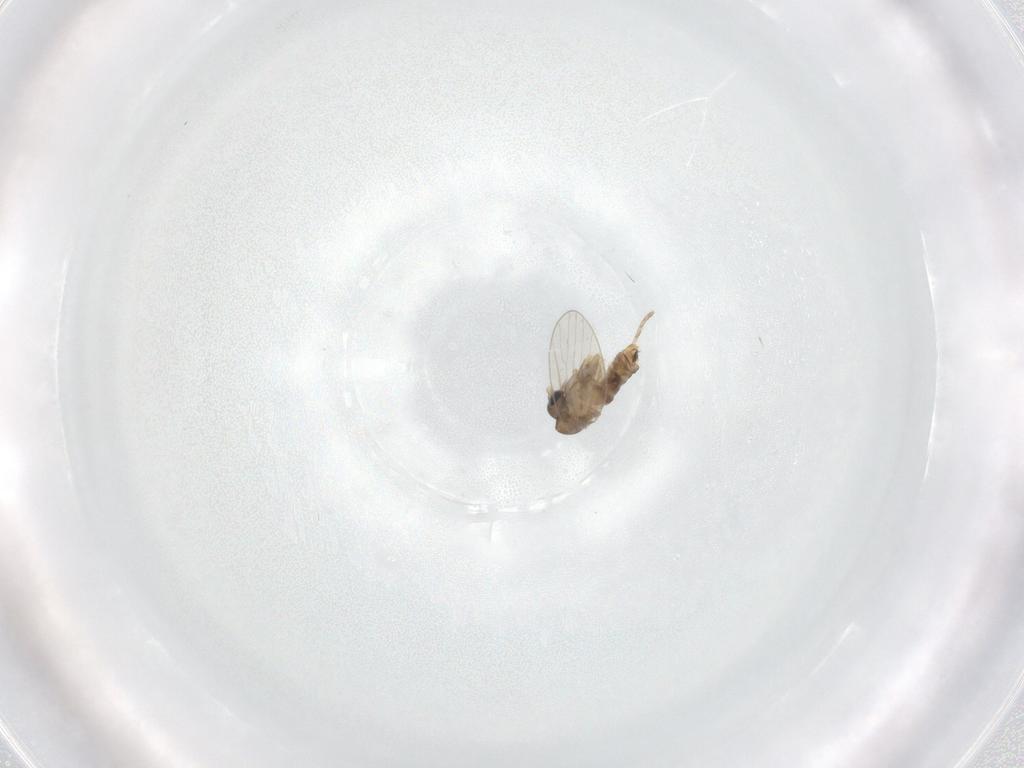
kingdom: Animalia
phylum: Arthropoda
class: Insecta
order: Diptera
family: Psychodidae
